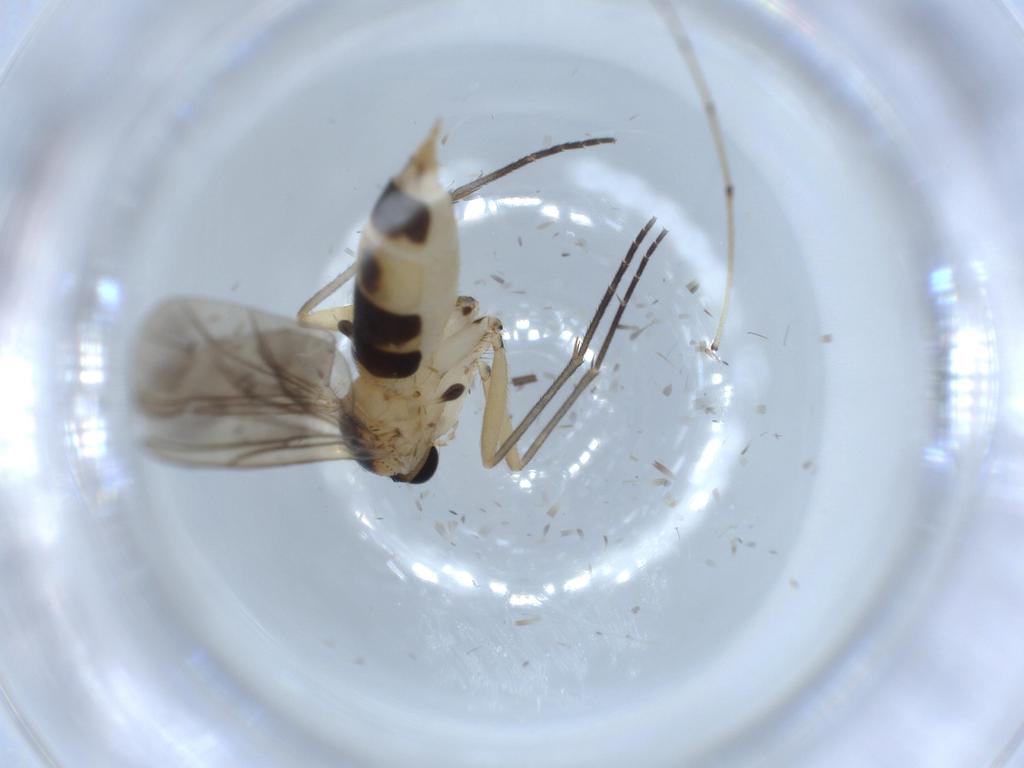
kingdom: Animalia
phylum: Arthropoda
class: Insecta
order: Diptera
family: Sciaridae
